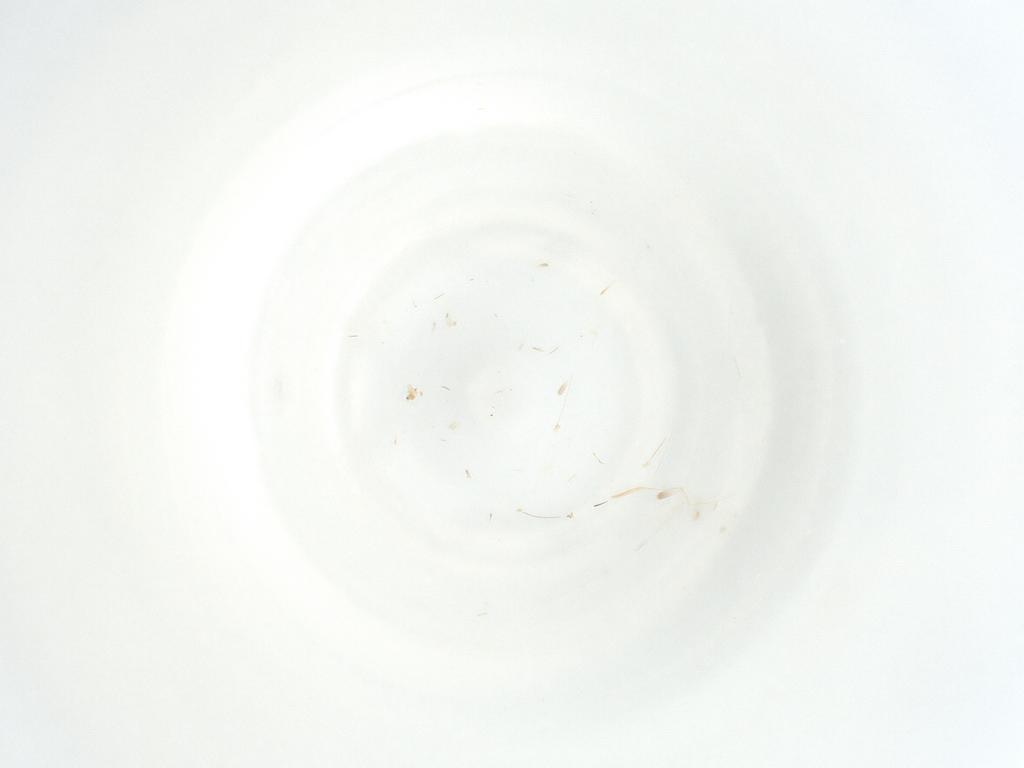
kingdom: Animalia
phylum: Arthropoda
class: Insecta
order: Hemiptera
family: Aleyrodidae
